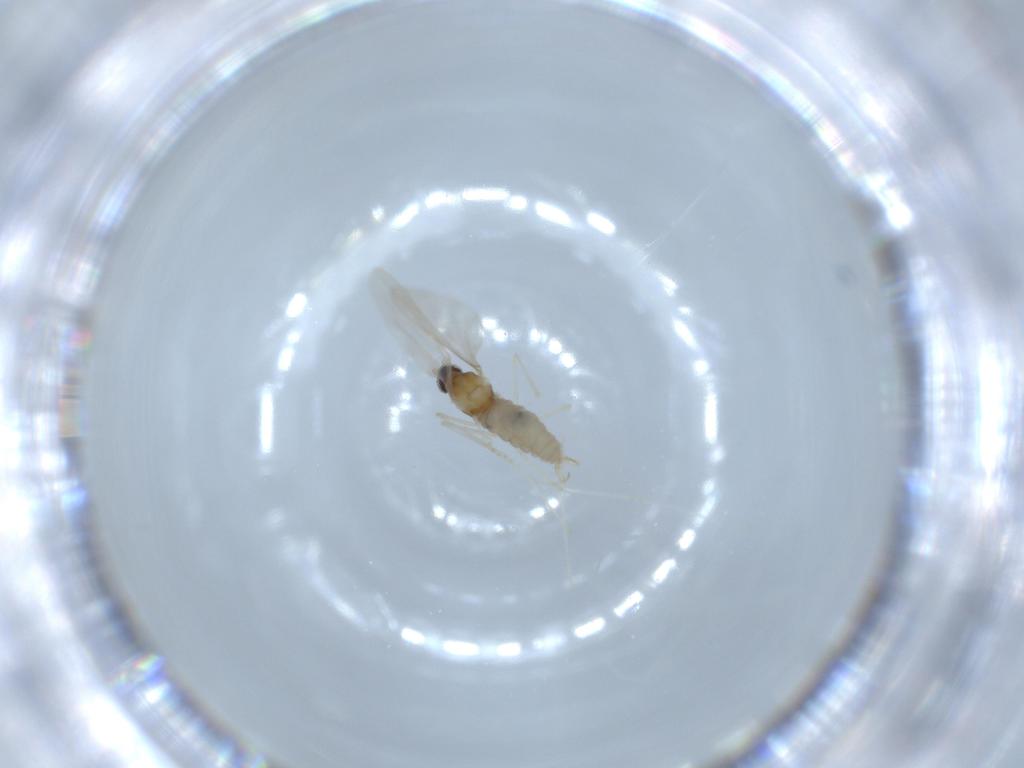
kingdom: Animalia
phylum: Arthropoda
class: Insecta
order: Diptera
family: Cecidomyiidae
